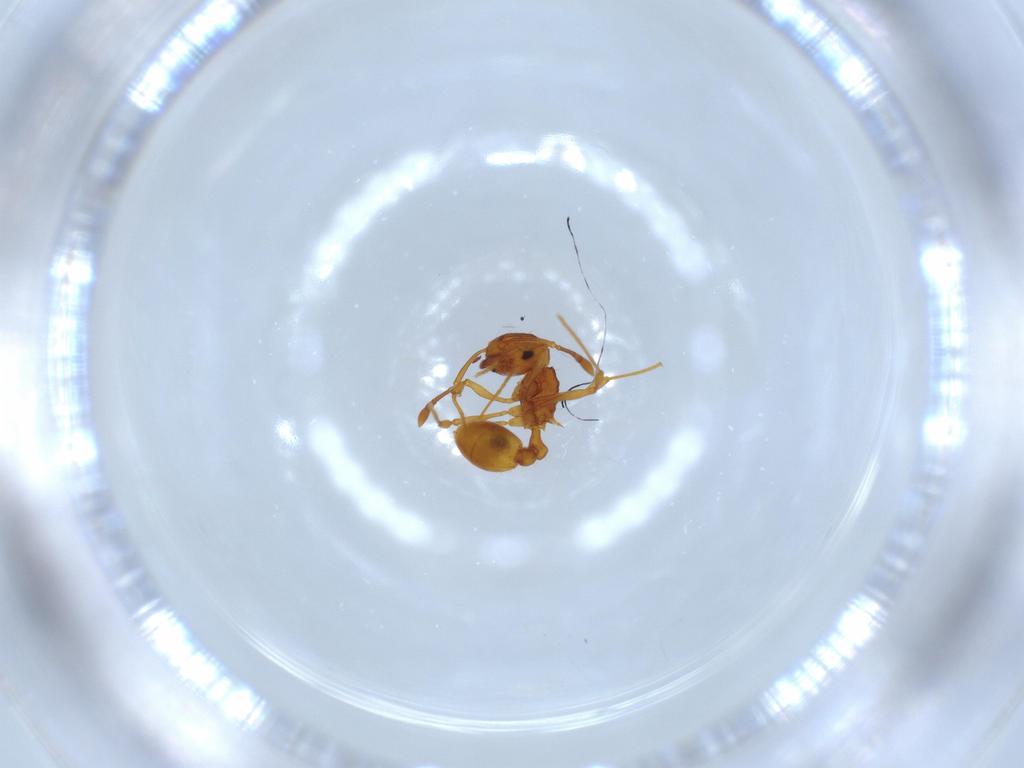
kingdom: Animalia
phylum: Arthropoda
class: Insecta
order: Hymenoptera
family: Formicidae
